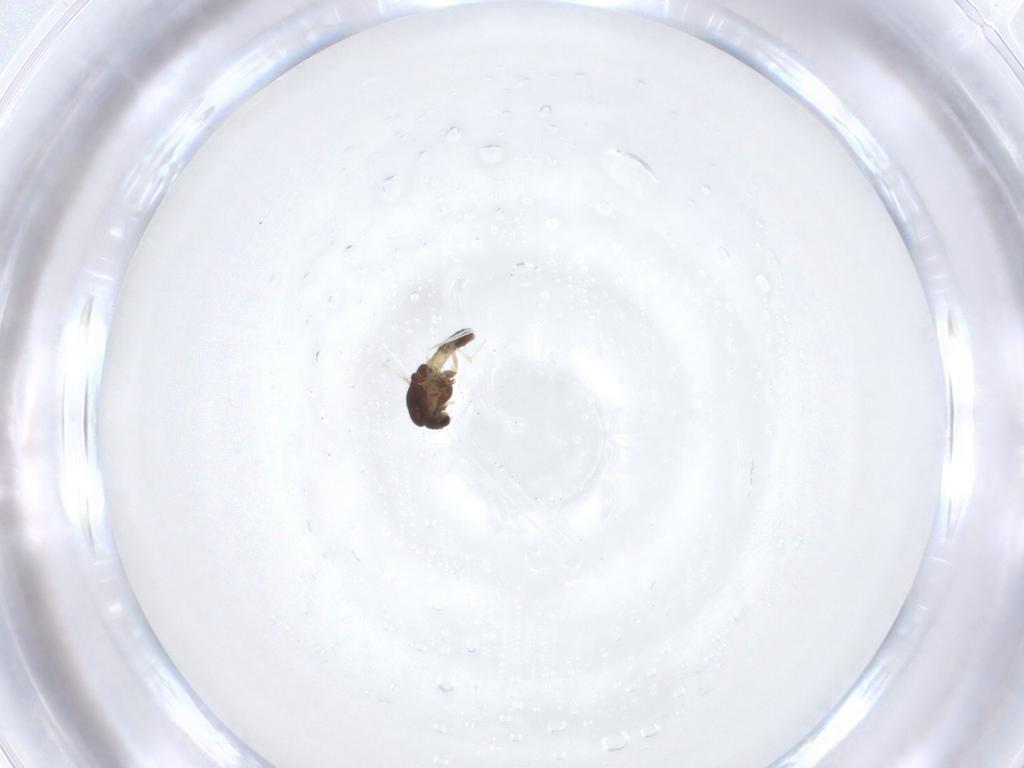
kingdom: Animalia
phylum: Arthropoda
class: Insecta
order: Diptera
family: Chironomidae
